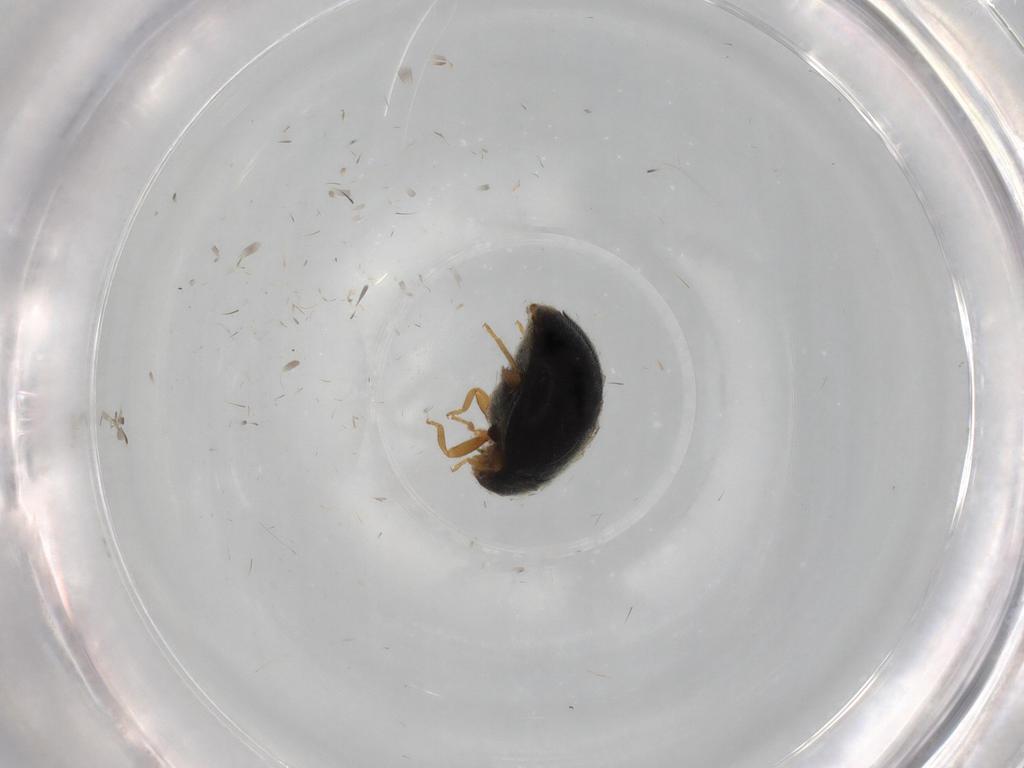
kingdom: Animalia
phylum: Arthropoda
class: Insecta
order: Coleoptera
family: Coccinellidae
